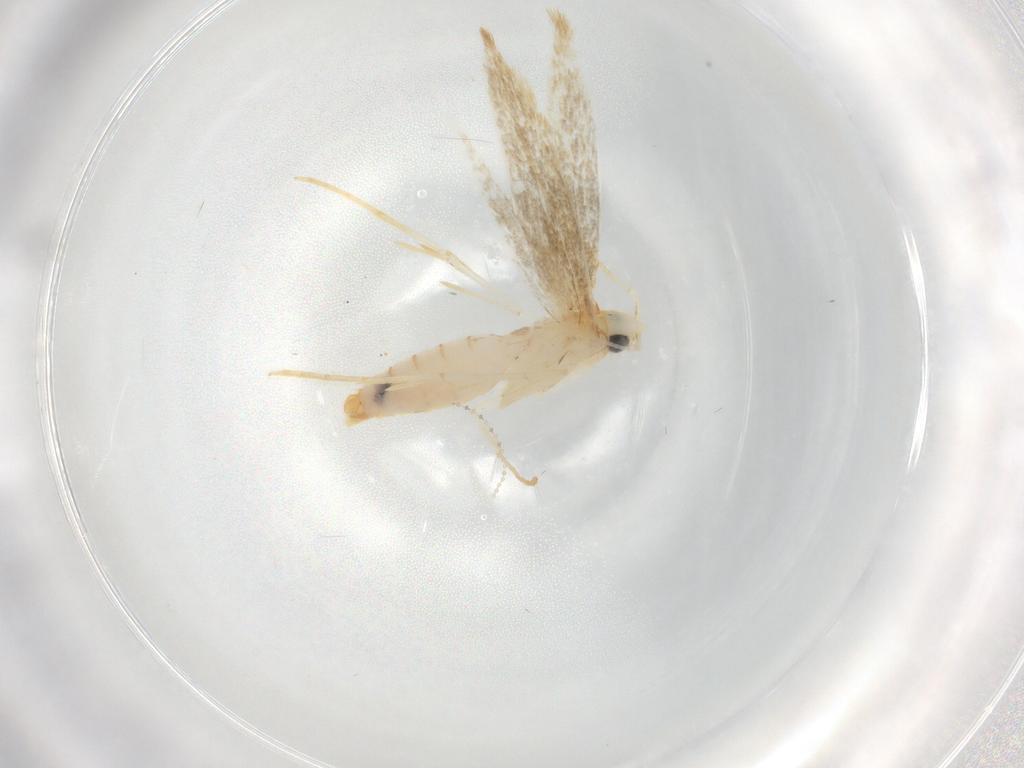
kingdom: Animalia
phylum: Arthropoda
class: Insecta
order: Lepidoptera
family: Tineidae
